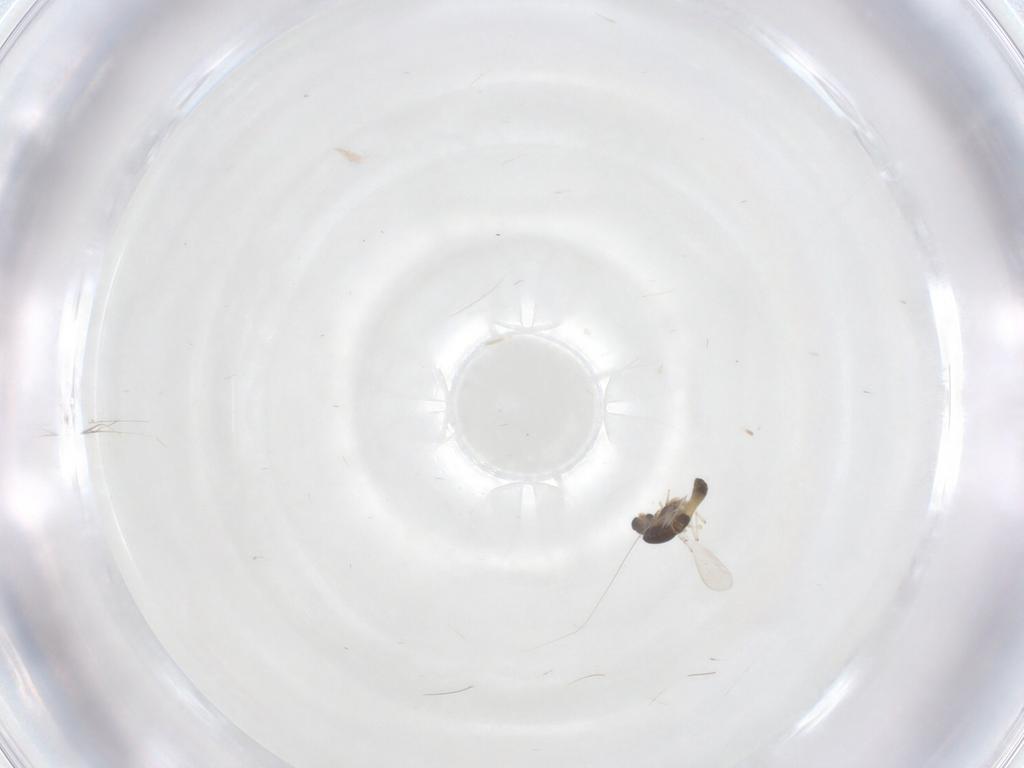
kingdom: Animalia
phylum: Arthropoda
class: Insecta
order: Diptera
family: Chironomidae
